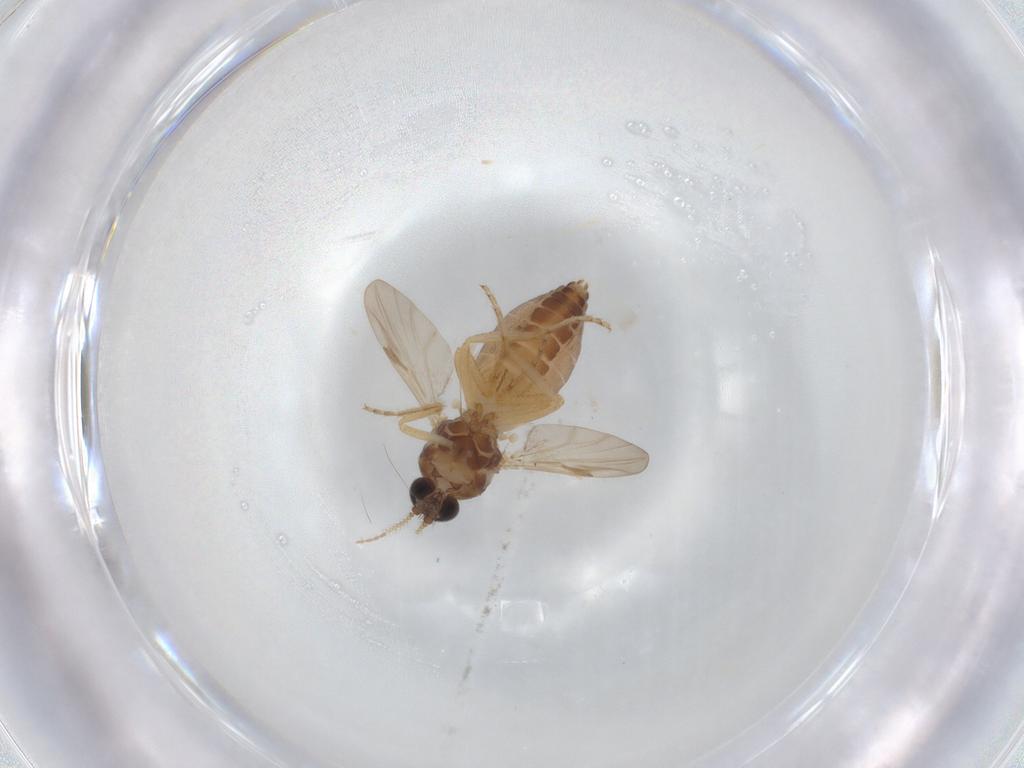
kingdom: Animalia
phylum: Arthropoda
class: Insecta
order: Diptera
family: Ceratopogonidae
